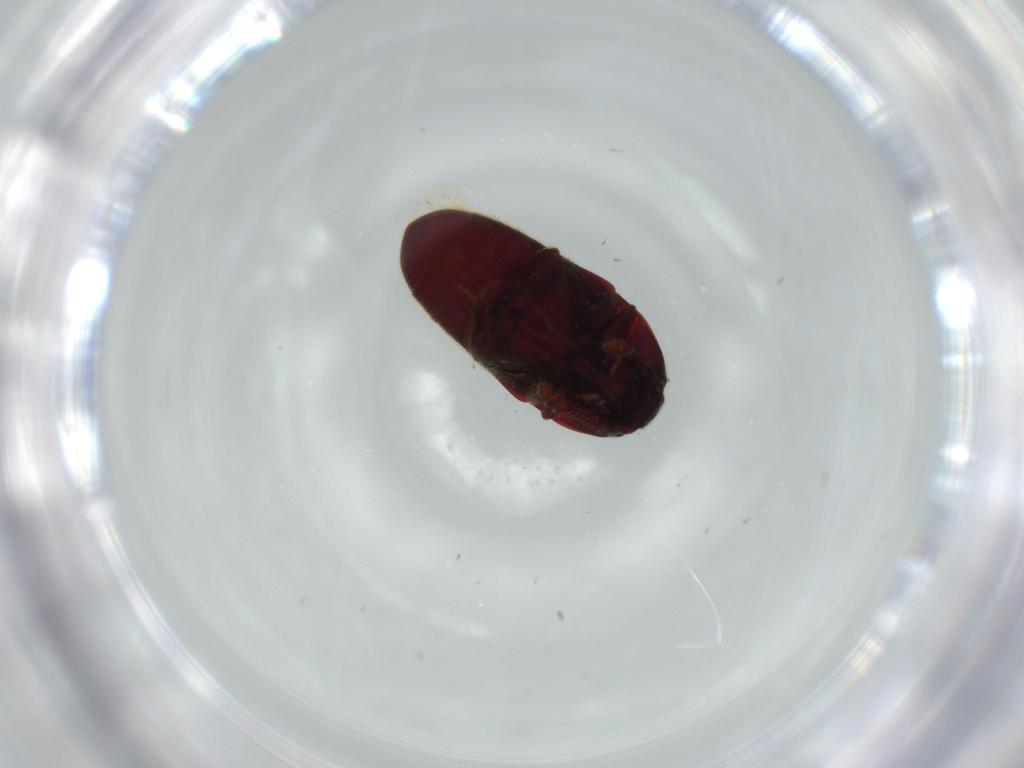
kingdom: Animalia
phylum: Arthropoda
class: Insecta
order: Coleoptera
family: Throscidae
